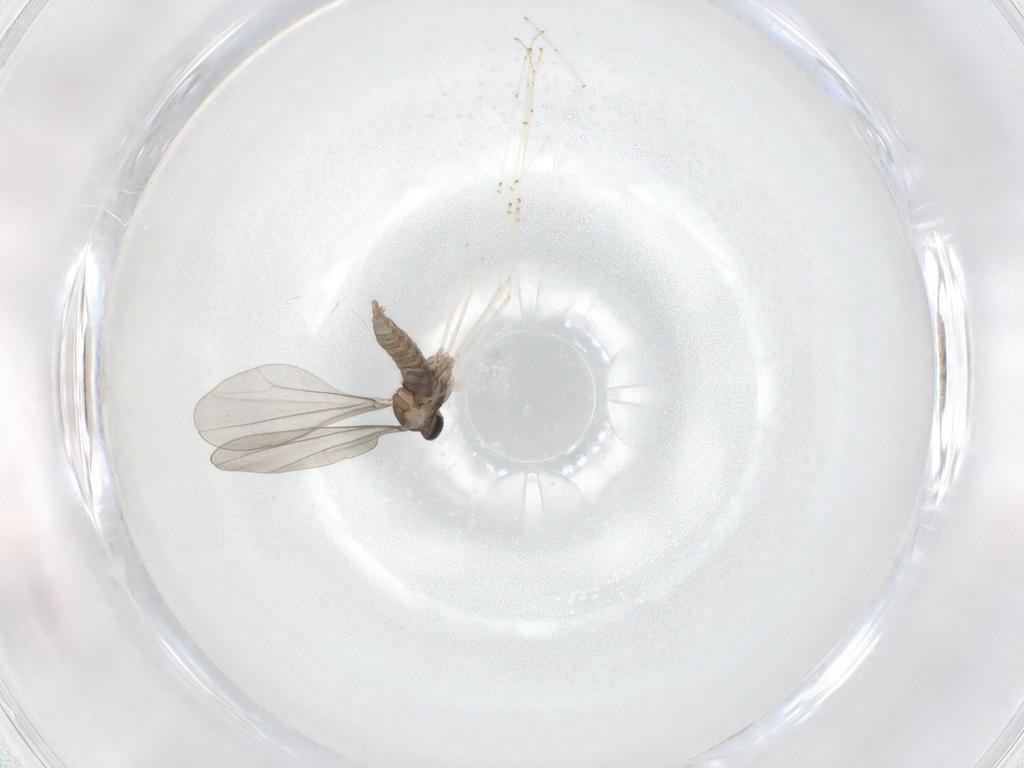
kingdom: Animalia
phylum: Arthropoda
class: Insecta
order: Diptera
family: Cecidomyiidae
